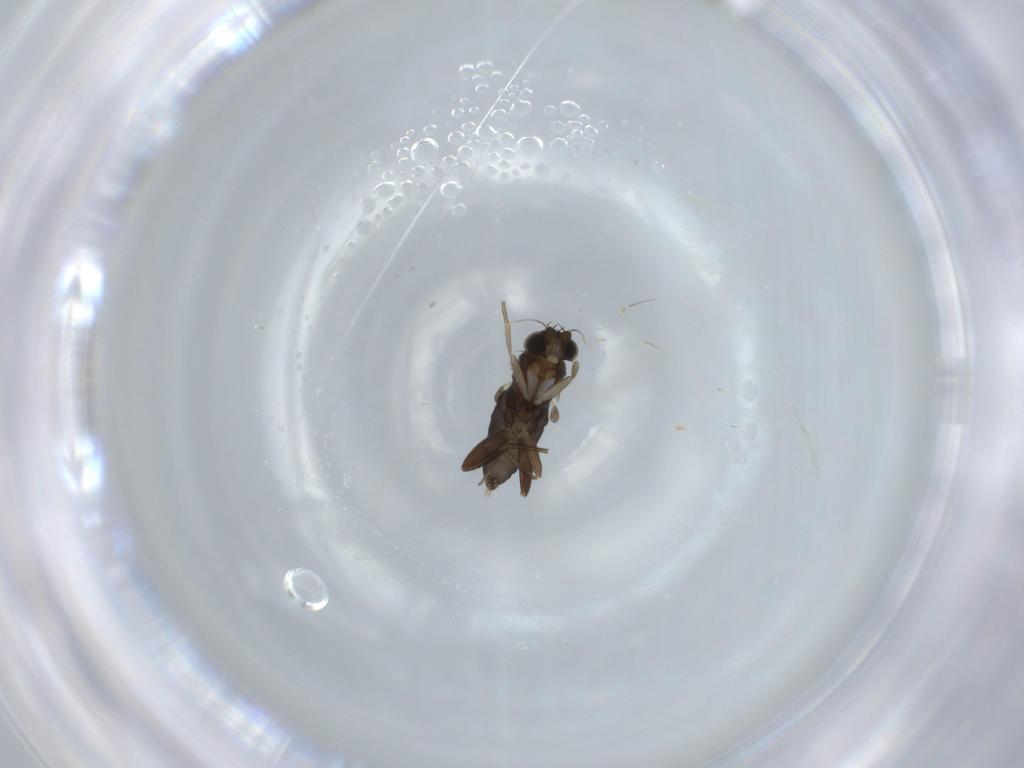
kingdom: Animalia
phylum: Arthropoda
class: Insecta
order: Diptera
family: Phoridae
